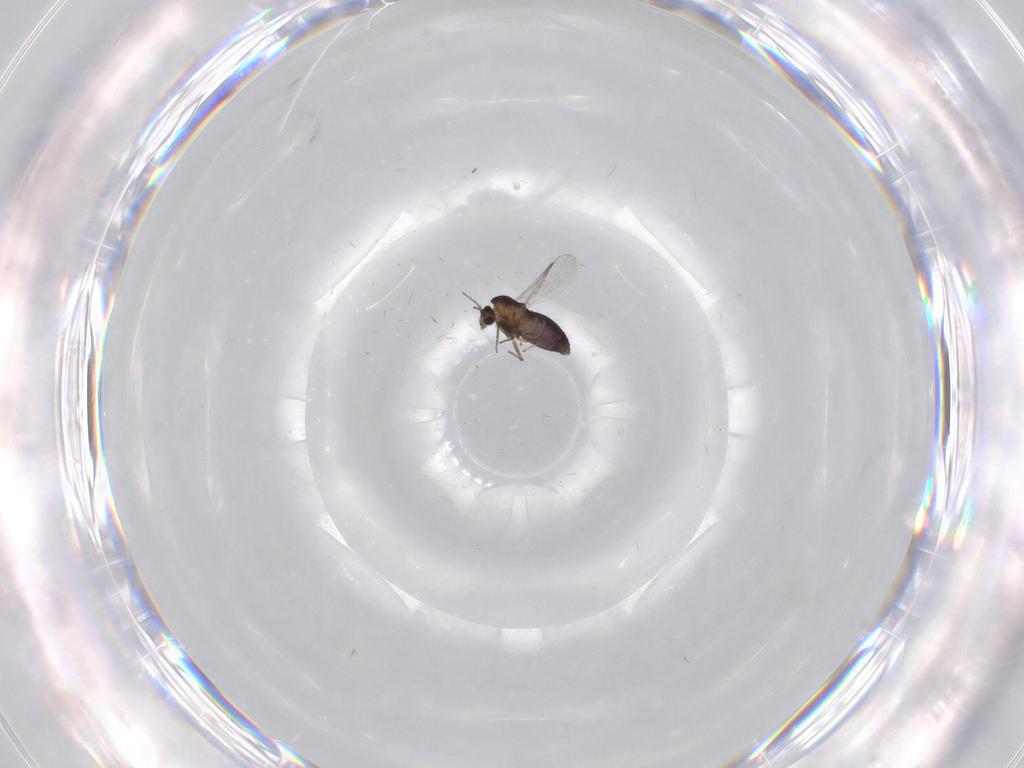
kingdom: Animalia
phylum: Arthropoda
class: Insecta
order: Diptera
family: Chironomidae
